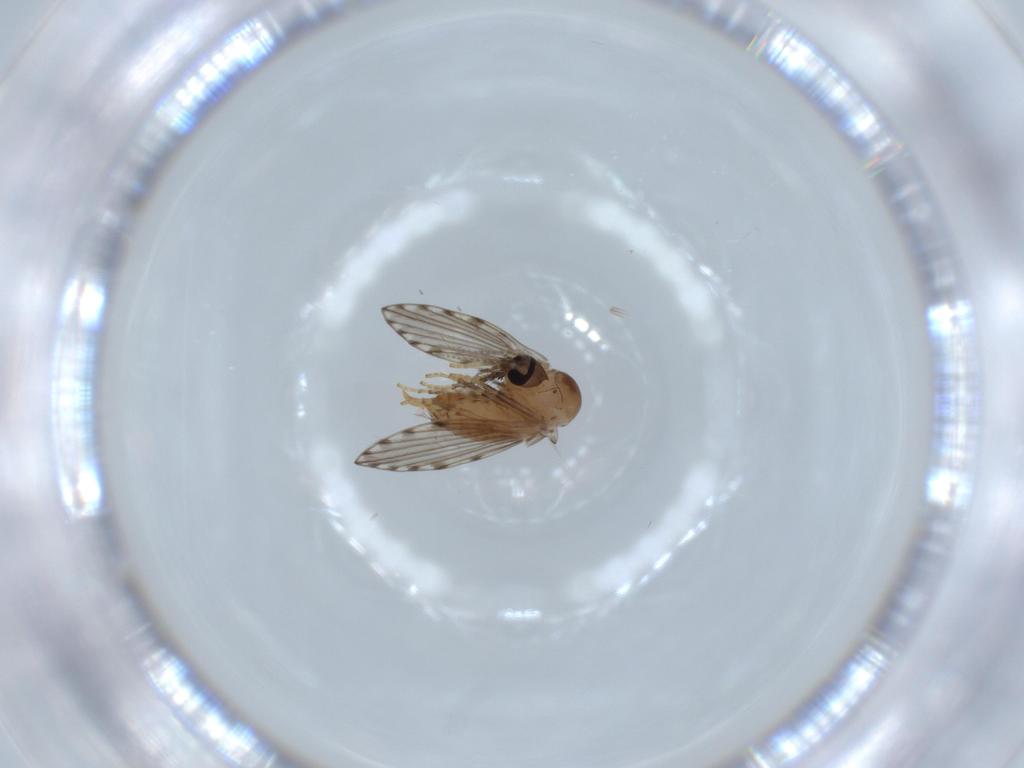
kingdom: Animalia
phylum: Arthropoda
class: Insecta
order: Diptera
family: Psychodidae
